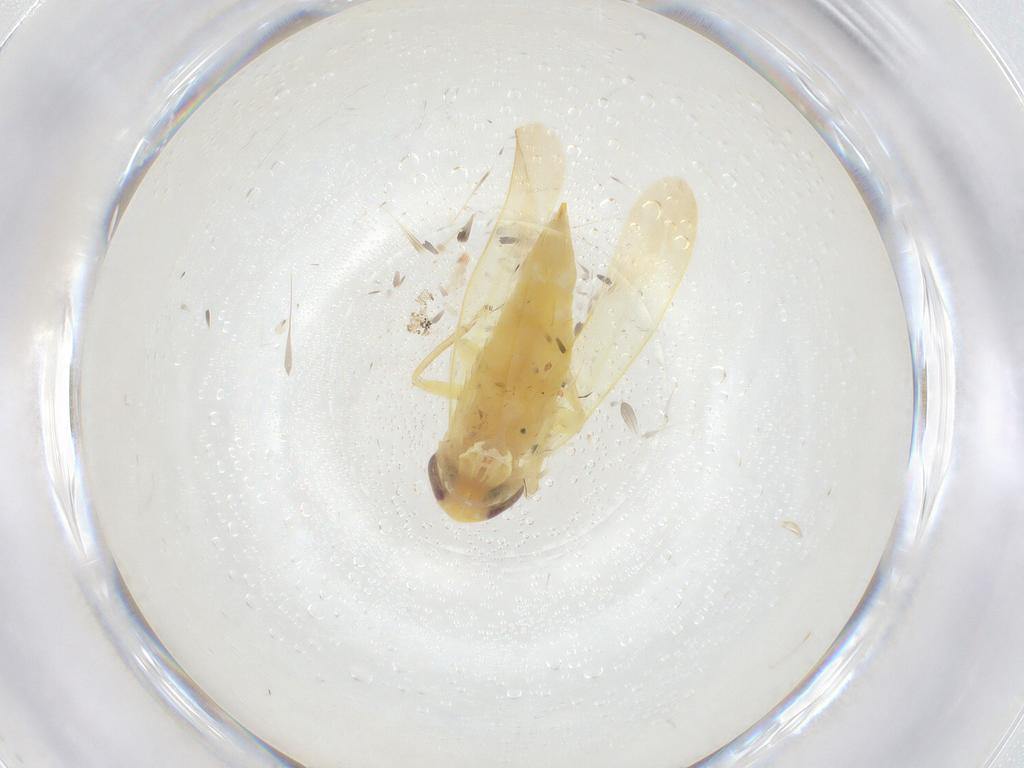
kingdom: Animalia
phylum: Arthropoda
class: Insecta
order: Hemiptera
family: Cicadellidae
